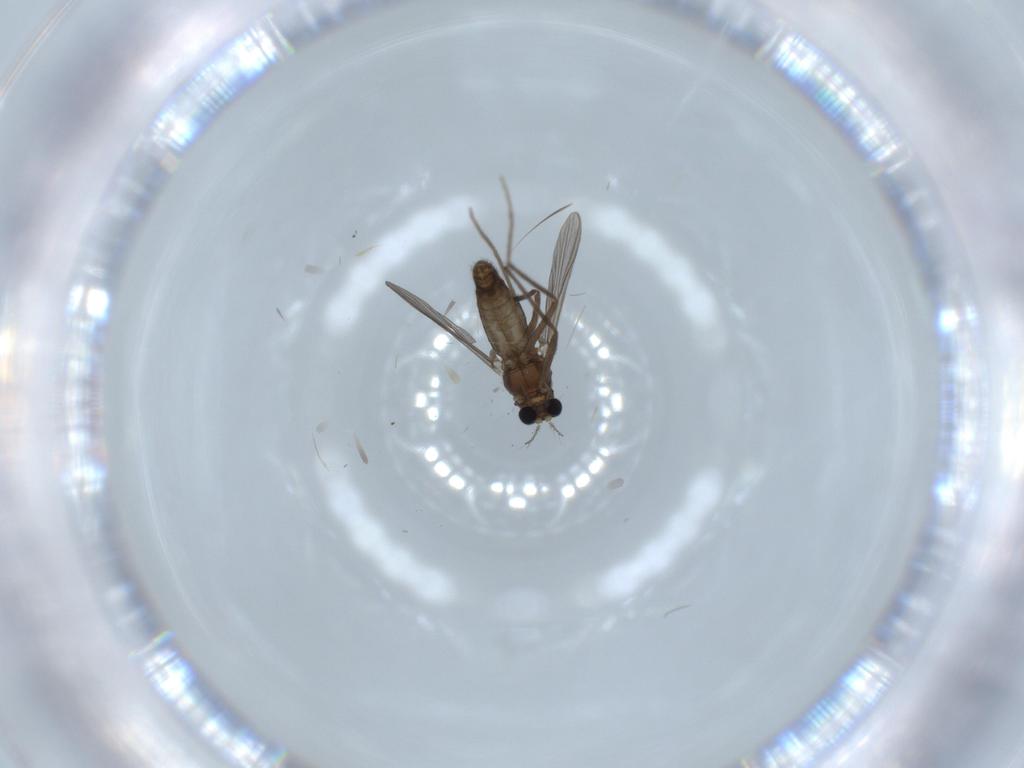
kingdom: Animalia
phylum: Arthropoda
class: Insecta
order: Diptera
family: Chironomidae
